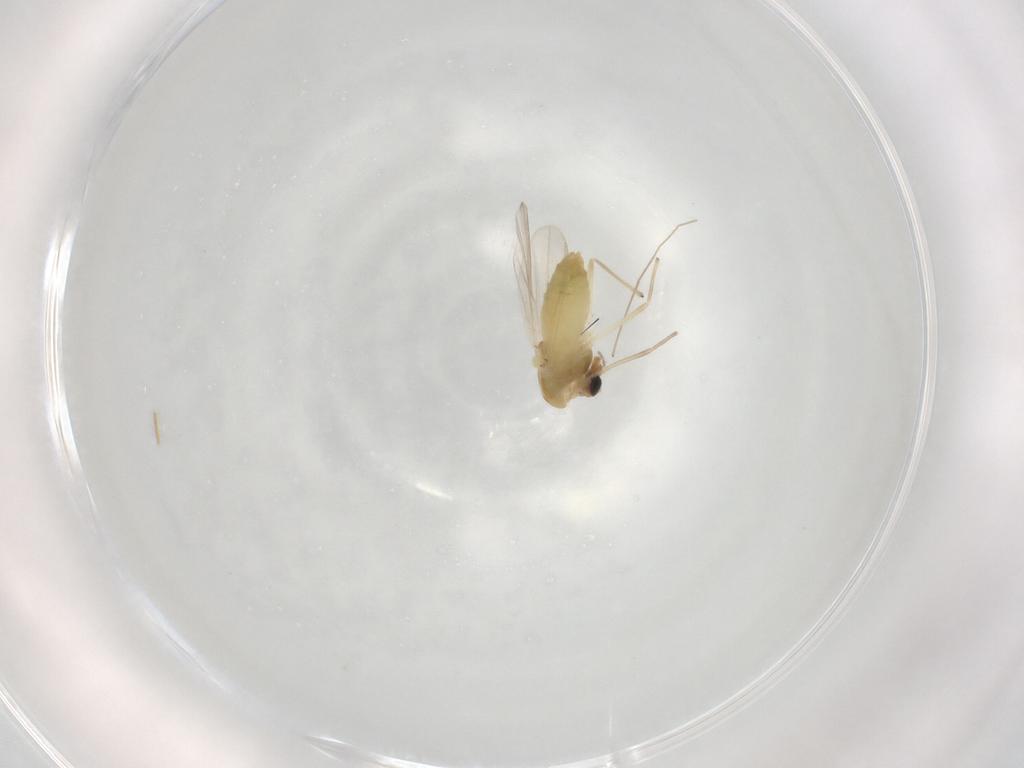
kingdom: Animalia
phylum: Arthropoda
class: Insecta
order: Diptera
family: Chironomidae
